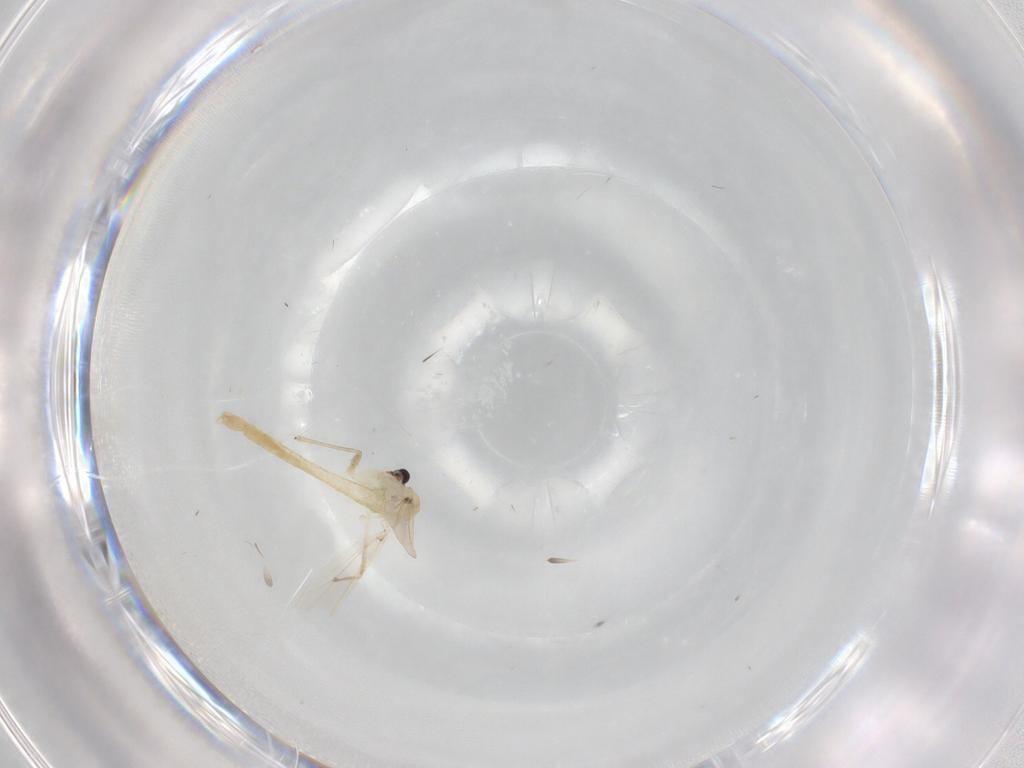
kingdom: Animalia
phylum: Arthropoda
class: Insecta
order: Diptera
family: Chironomidae
